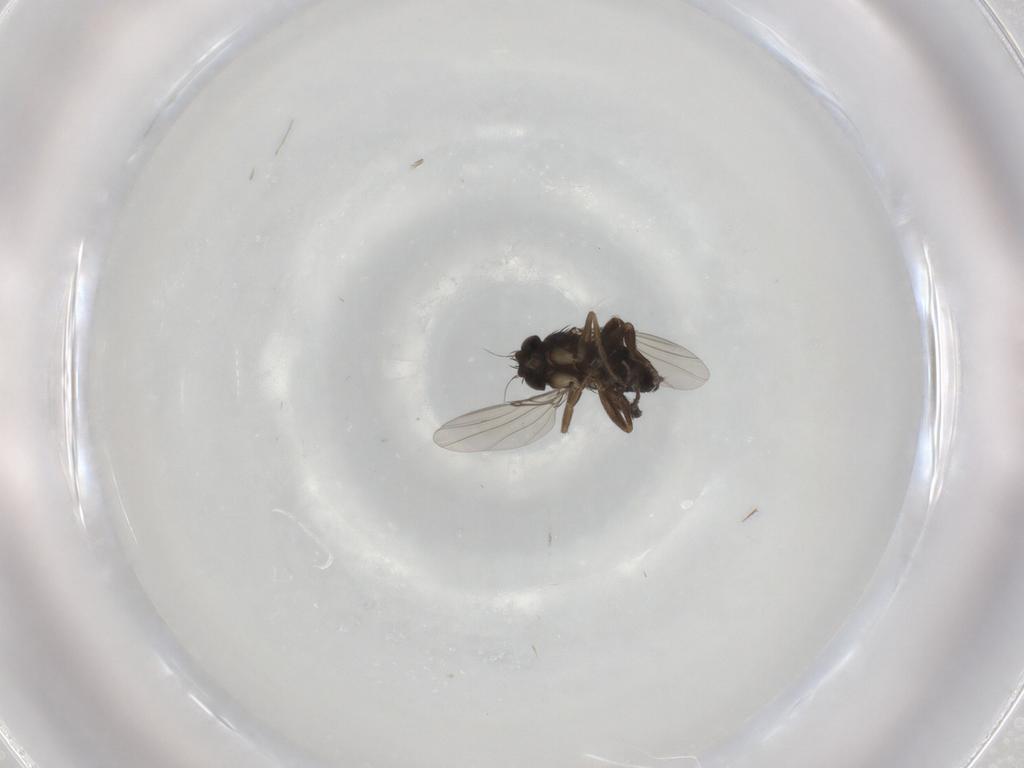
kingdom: Animalia
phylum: Arthropoda
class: Insecta
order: Diptera
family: Phoridae
